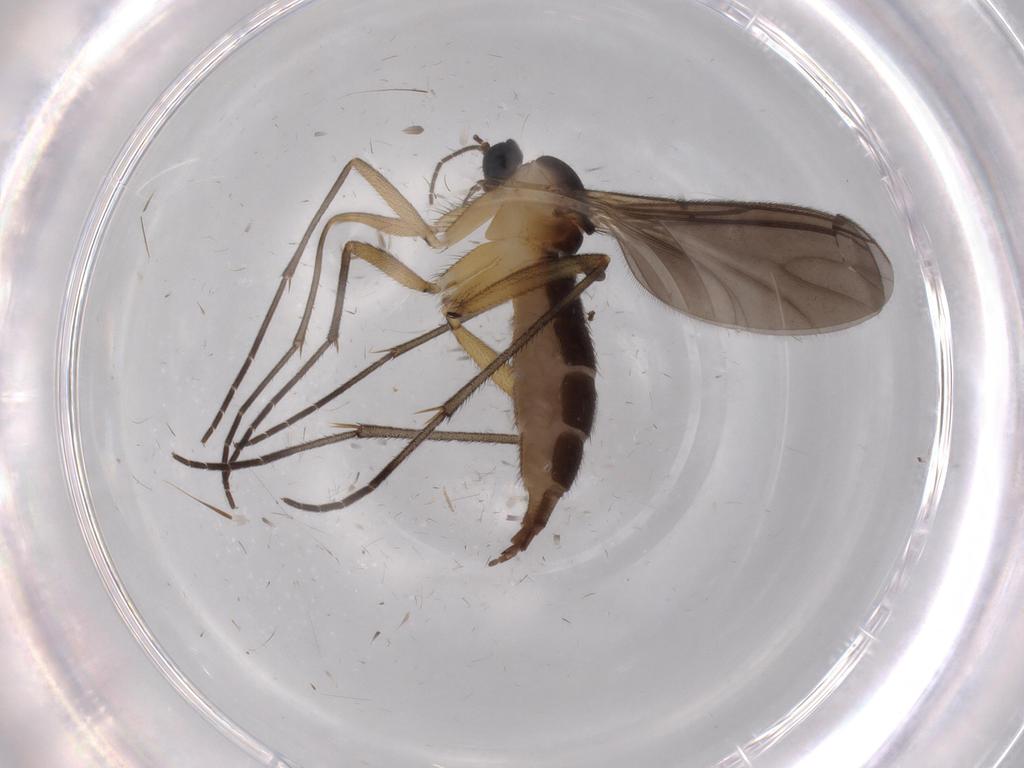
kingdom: Animalia
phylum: Arthropoda
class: Insecta
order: Diptera
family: Sciaridae
